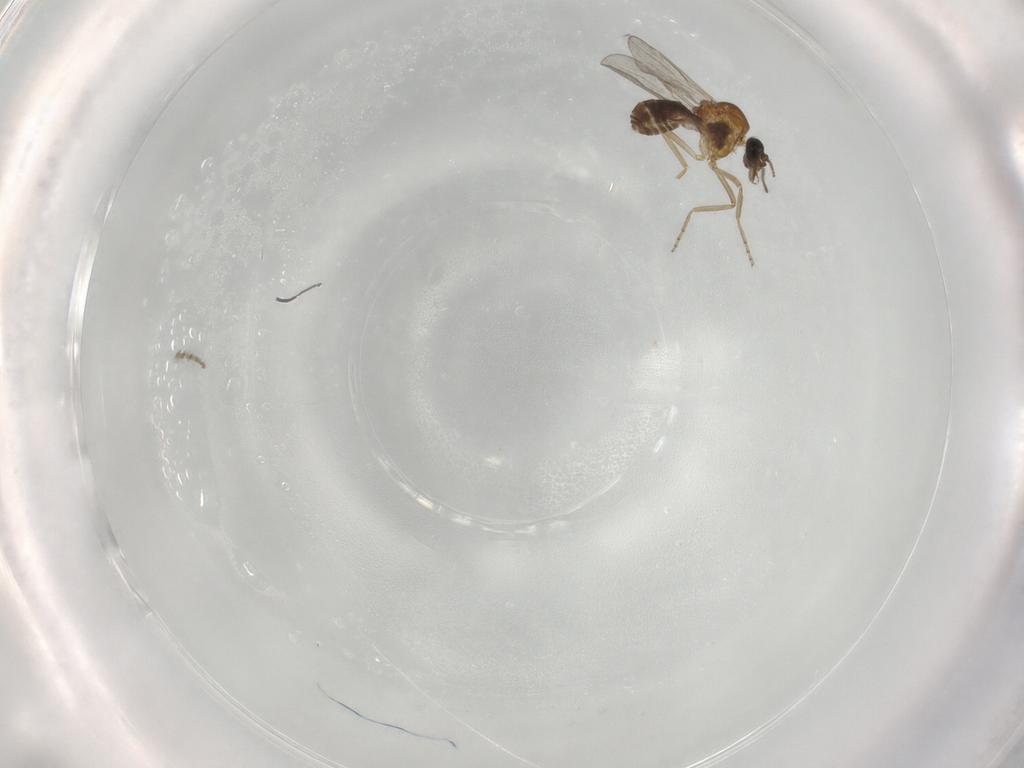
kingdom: Animalia
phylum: Arthropoda
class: Insecta
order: Diptera
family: Cecidomyiidae
